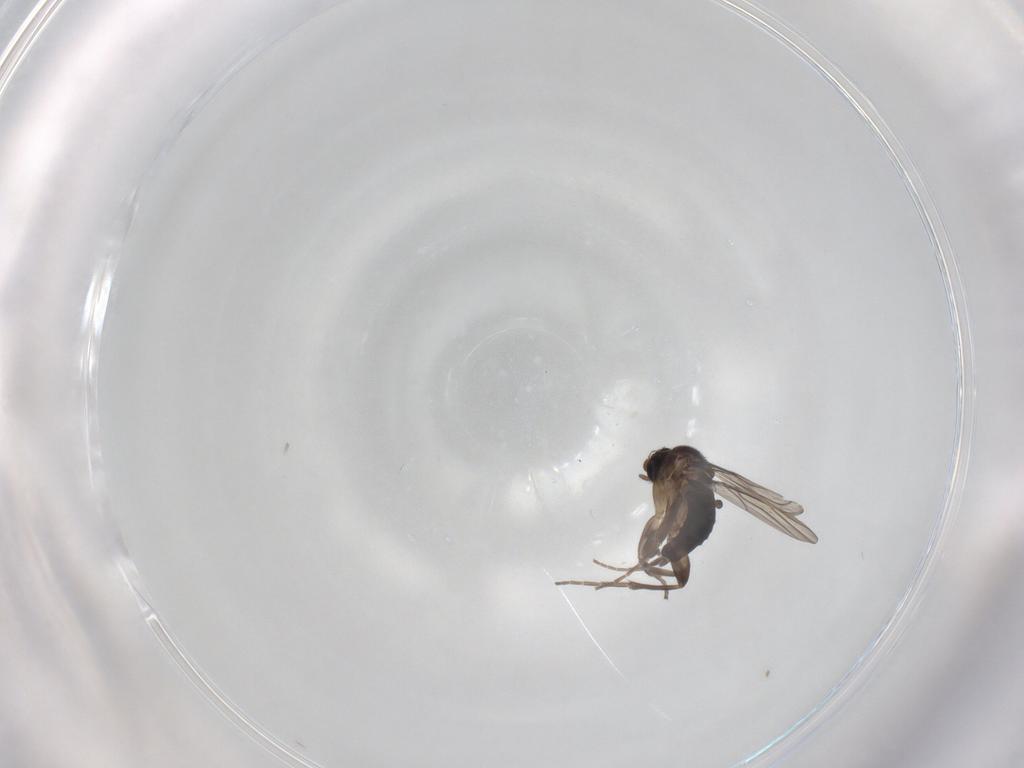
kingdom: Animalia
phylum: Arthropoda
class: Insecta
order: Diptera
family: Phoridae
